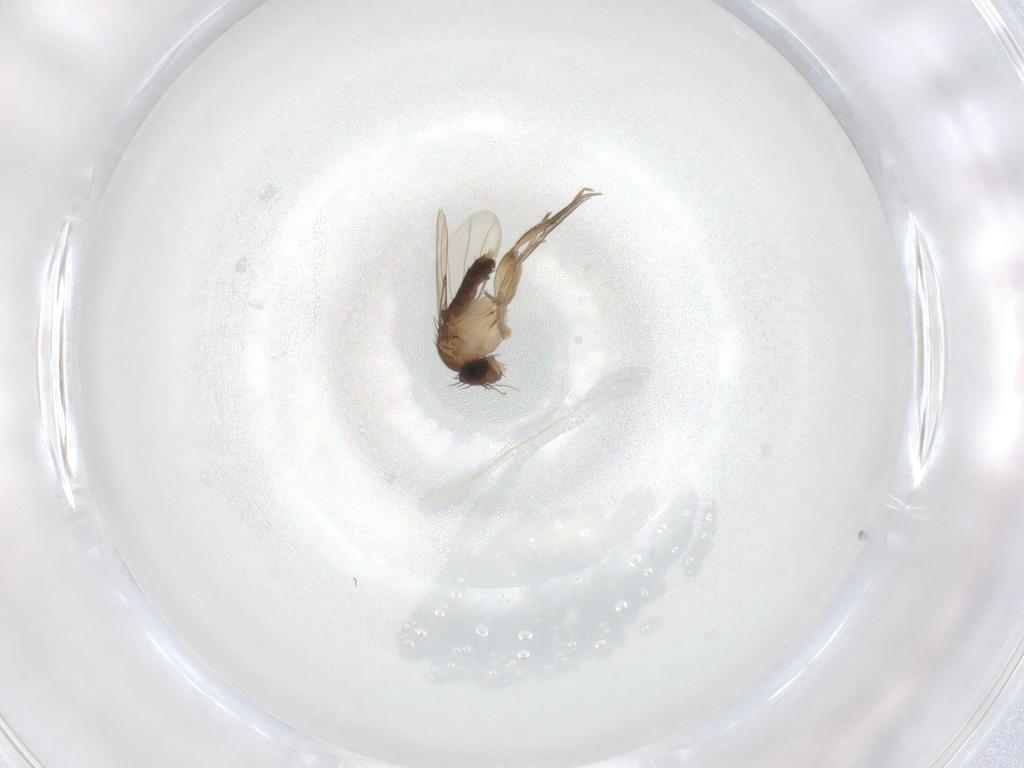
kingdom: Animalia
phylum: Arthropoda
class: Insecta
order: Diptera
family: Phoridae
